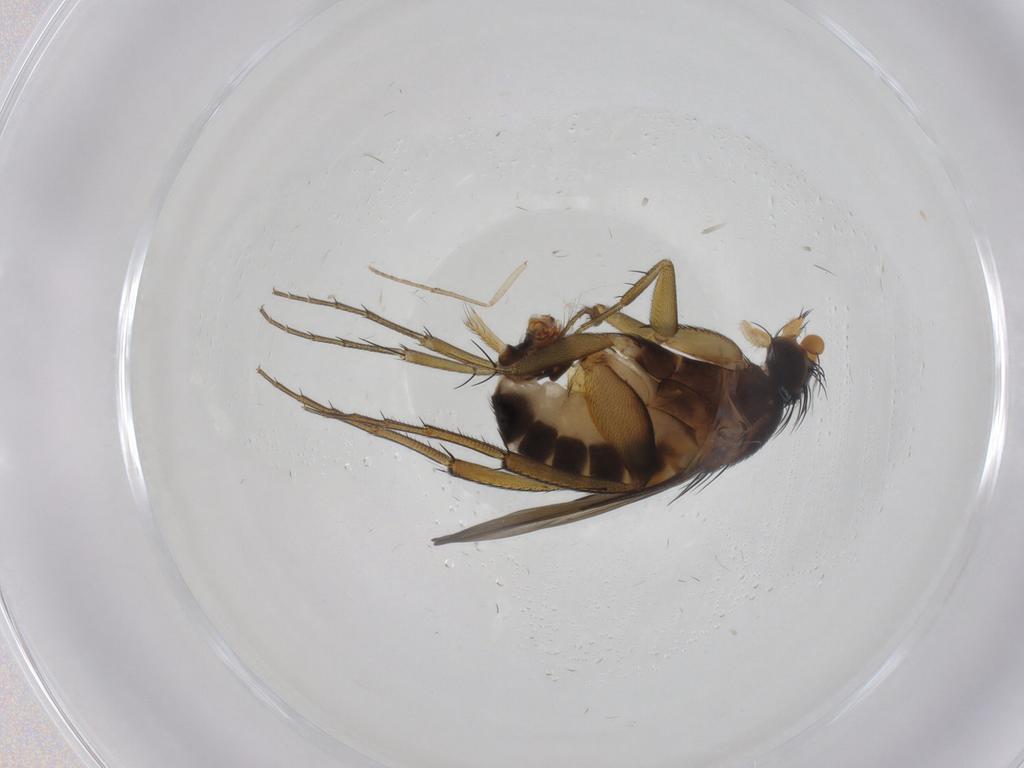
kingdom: Animalia
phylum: Arthropoda
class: Insecta
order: Diptera
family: Phoridae
